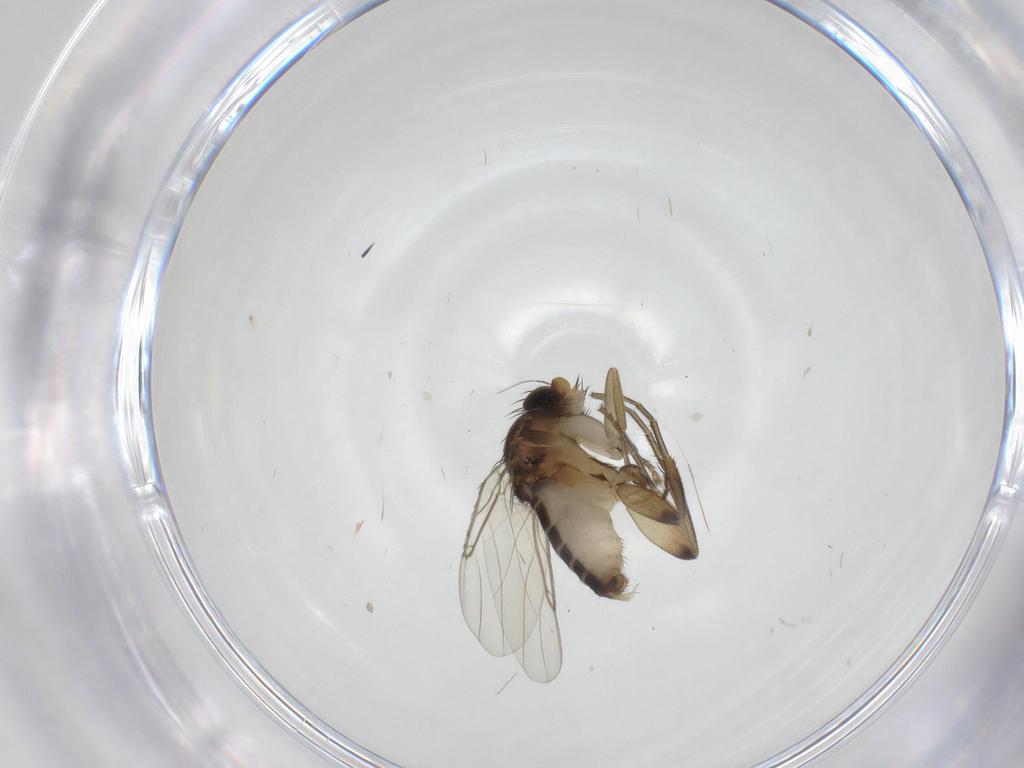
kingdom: Animalia
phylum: Arthropoda
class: Insecta
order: Diptera
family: Phoridae
